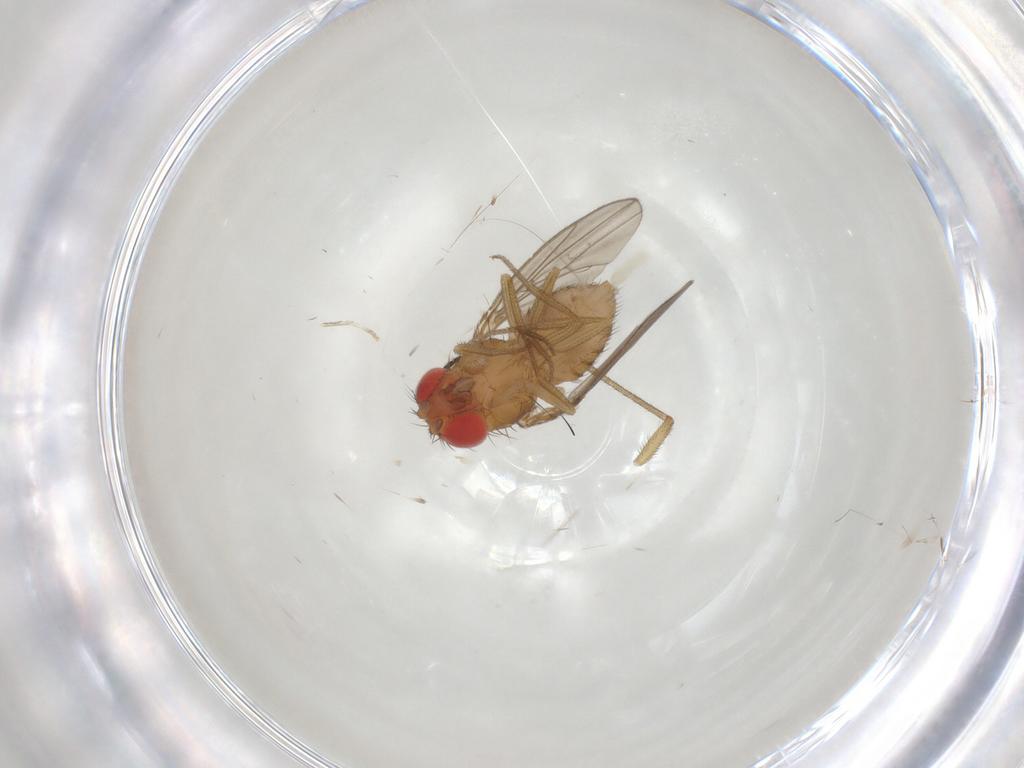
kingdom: Animalia
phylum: Arthropoda
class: Insecta
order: Diptera
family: Drosophilidae
